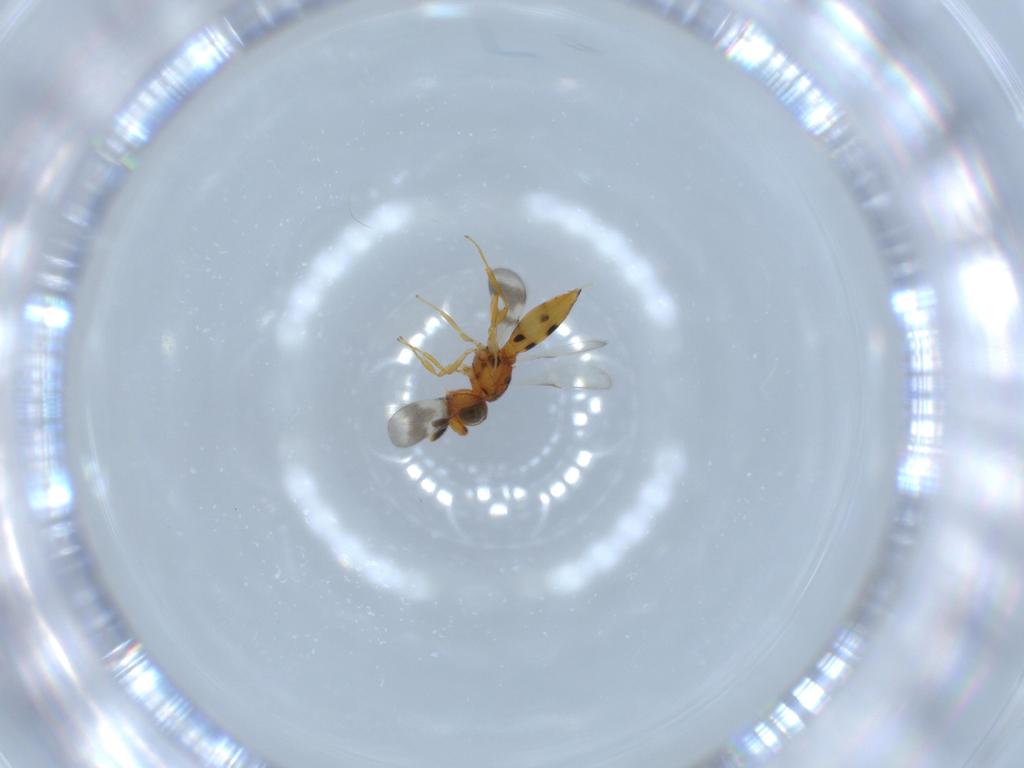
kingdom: Animalia
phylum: Arthropoda
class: Insecta
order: Hymenoptera
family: Scelionidae
